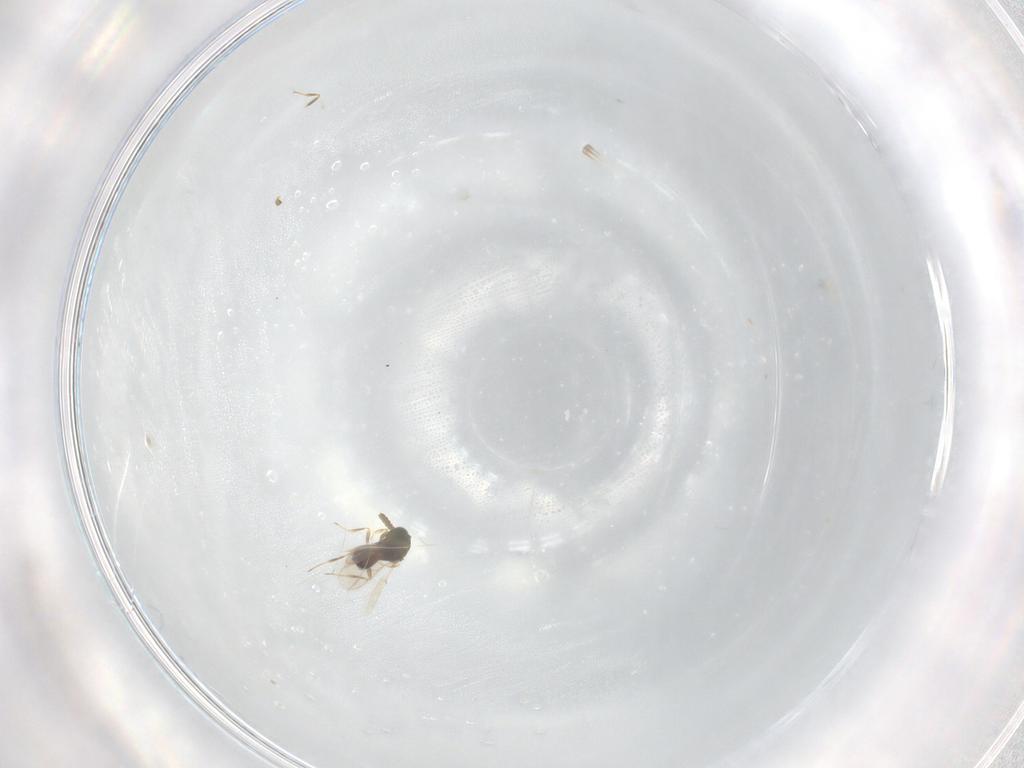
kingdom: Animalia
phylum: Arthropoda
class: Insecta
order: Hymenoptera
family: Scelionidae
